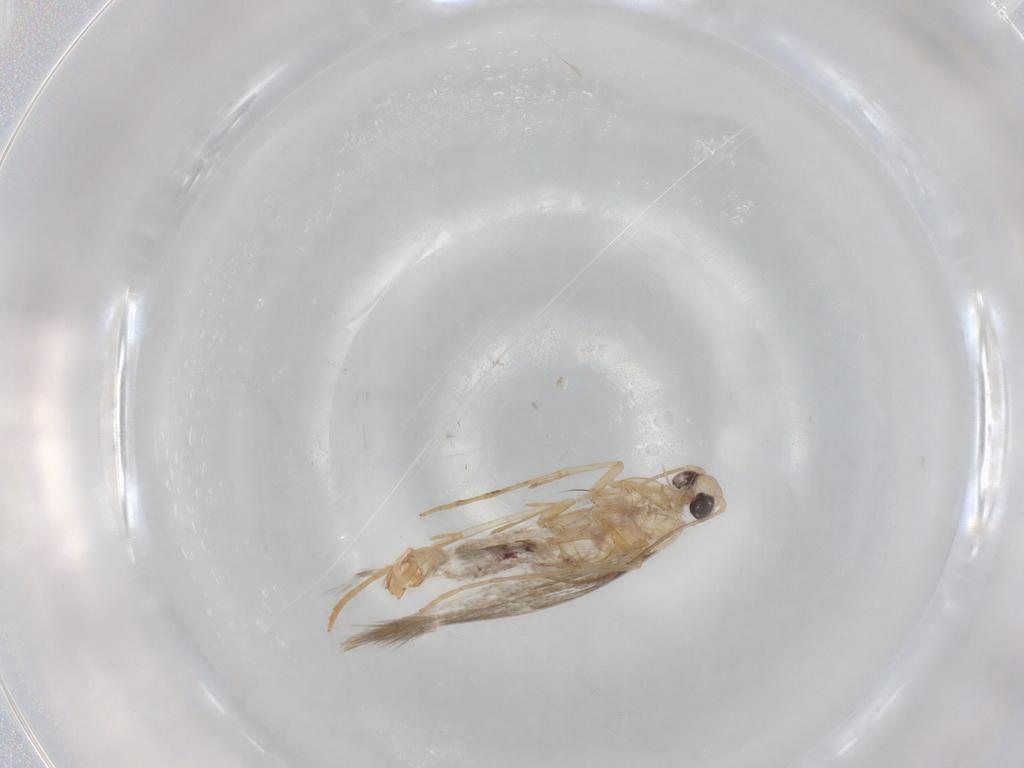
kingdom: Animalia
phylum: Arthropoda
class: Insecta
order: Lepidoptera
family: Tischeriidae
